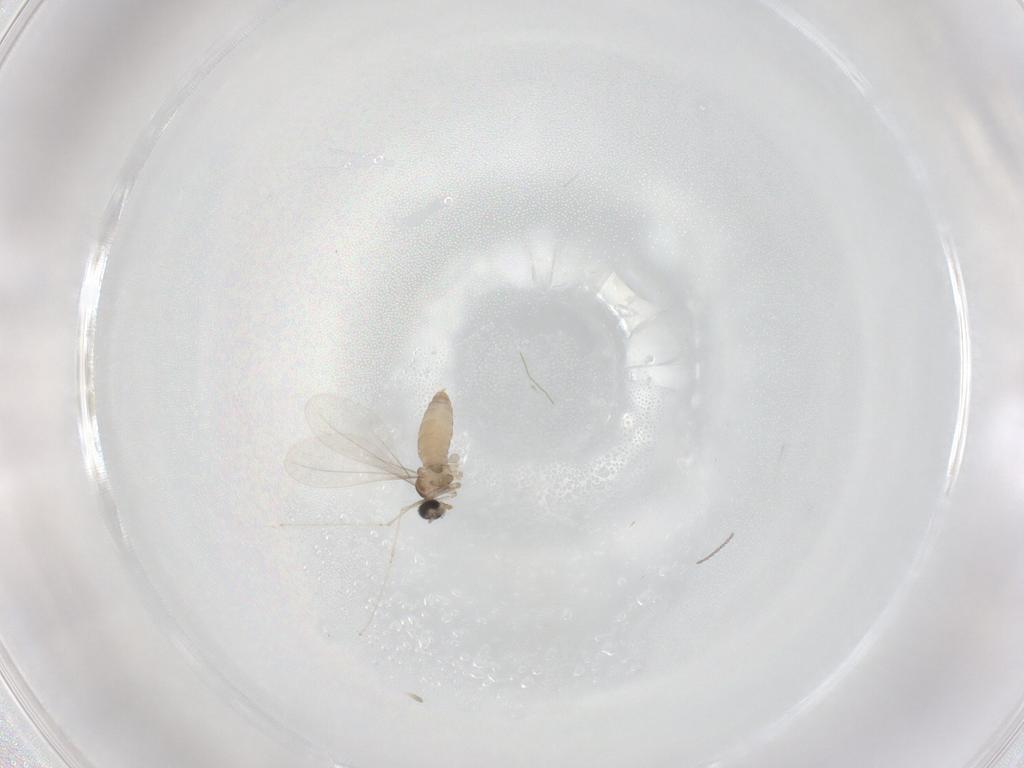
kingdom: Animalia
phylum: Arthropoda
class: Insecta
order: Diptera
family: Cecidomyiidae
